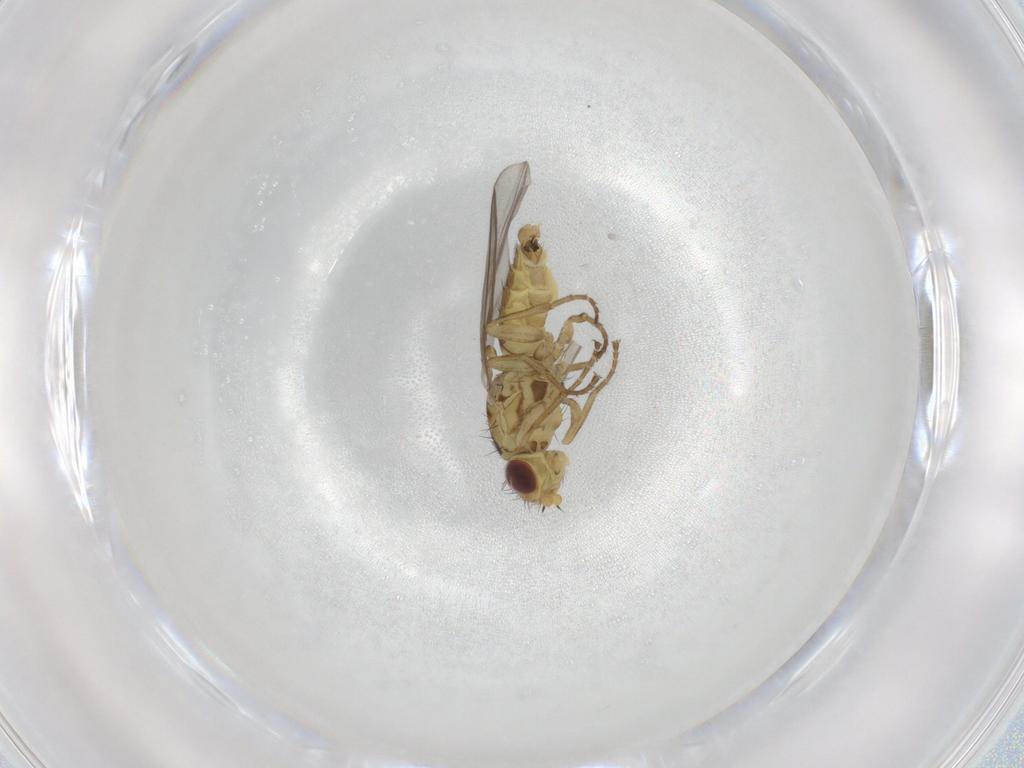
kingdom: Animalia
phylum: Arthropoda
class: Insecta
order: Diptera
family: Agromyzidae
